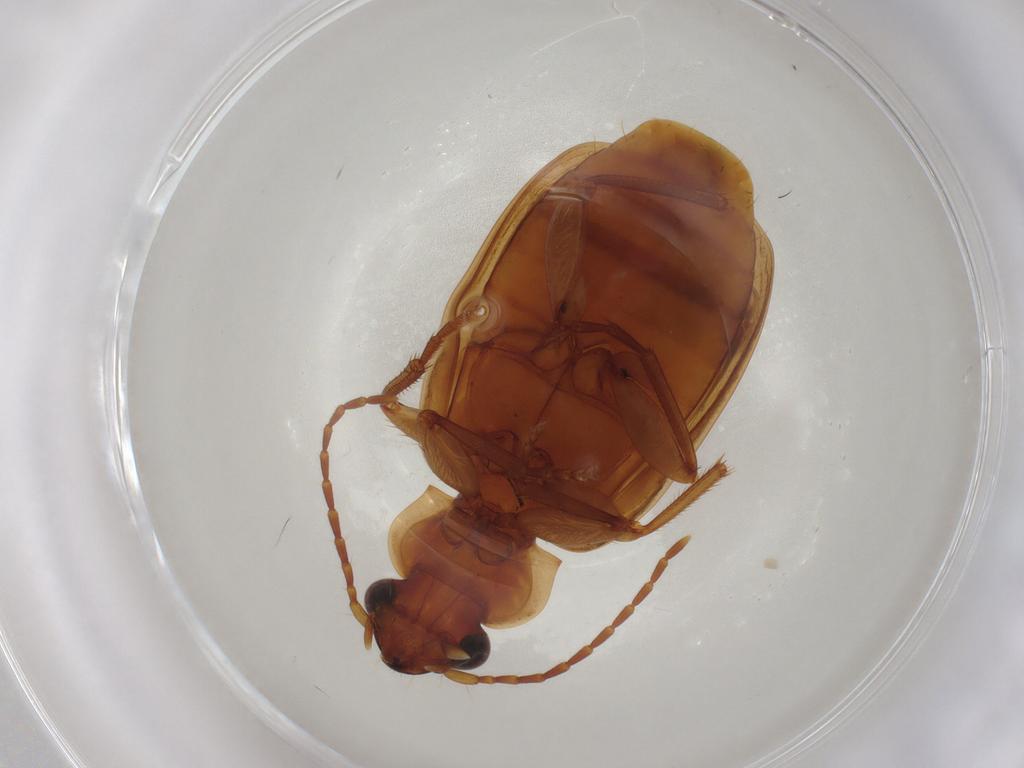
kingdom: Animalia
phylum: Arthropoda
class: Insecta
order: Coleoptera
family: Carabidae
